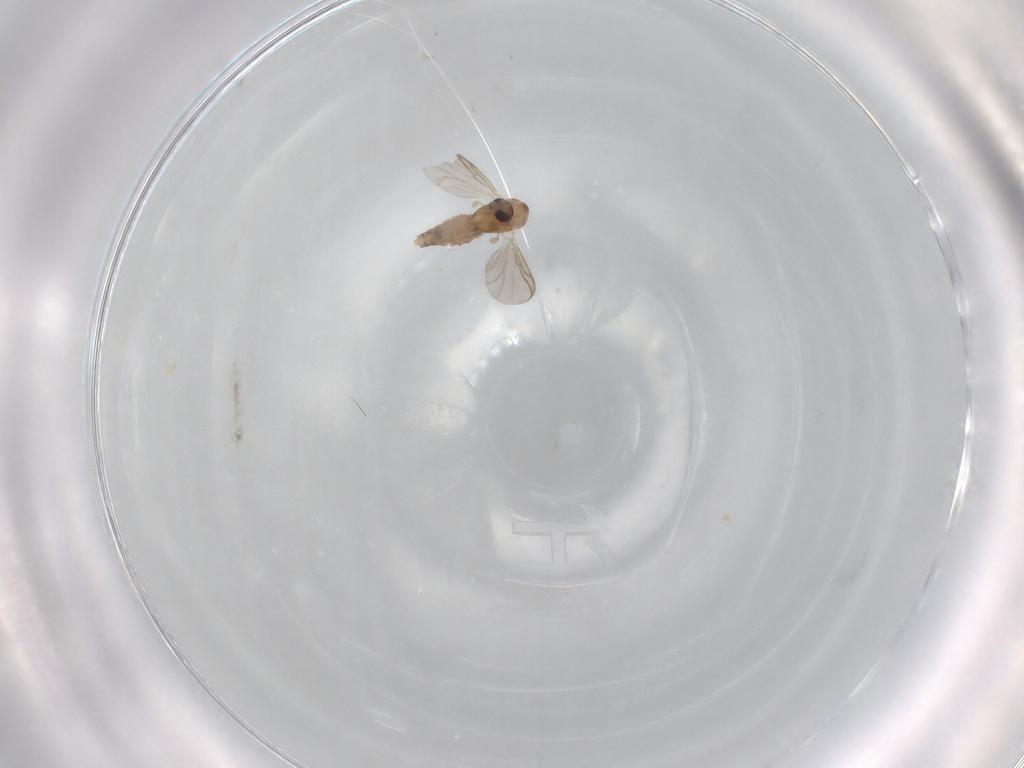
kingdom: Animalia
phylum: Arthropoda
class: Insecta
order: Diptera
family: Chironomidae
